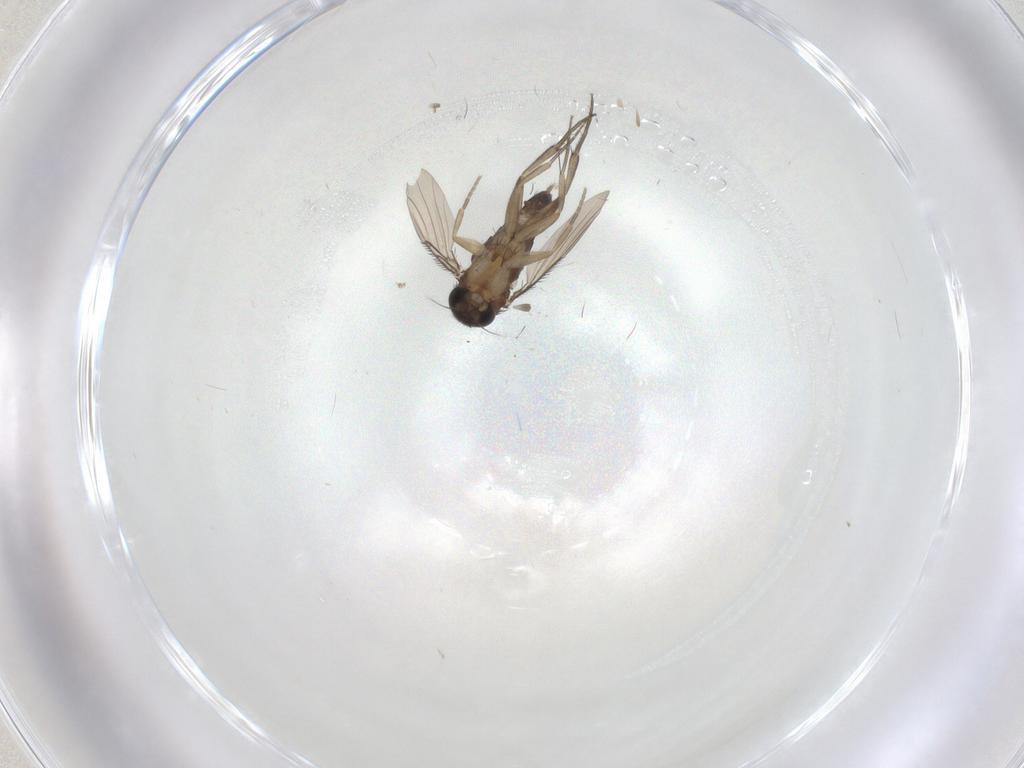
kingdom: Animalia
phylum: Arthropoda
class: Insecta
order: Diptera
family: Phoridae
